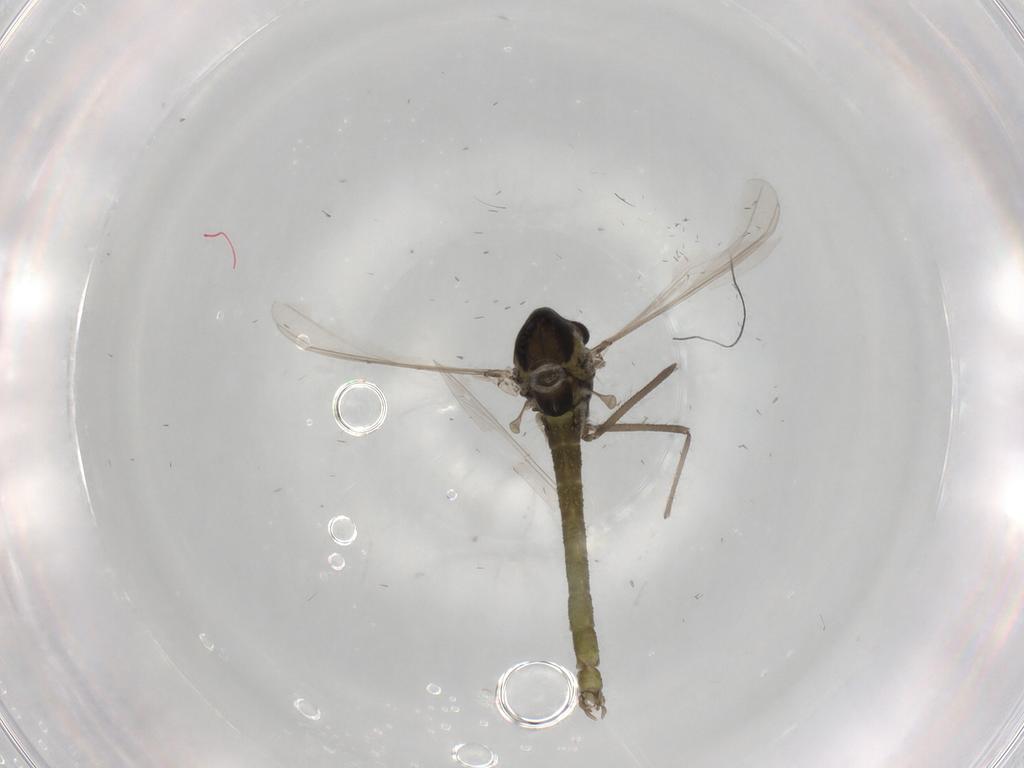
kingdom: Animalia
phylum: Arthropoda
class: Insecta
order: Diptera
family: Chironomidae
